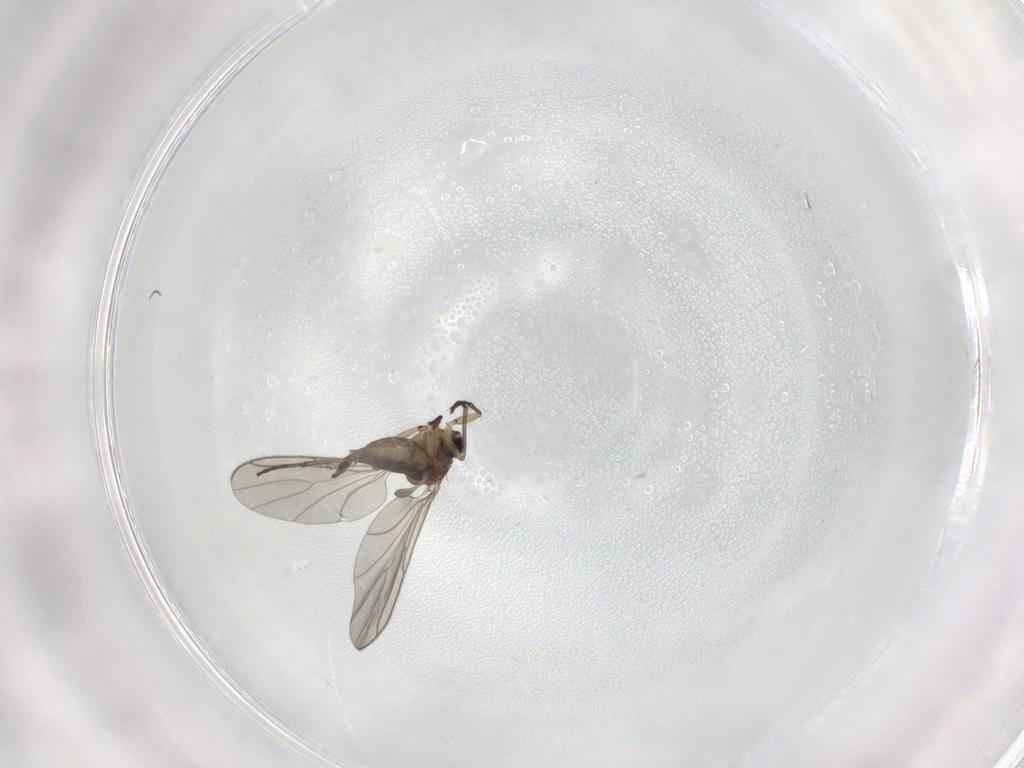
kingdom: Animalia
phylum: Arthropoda
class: Insecta
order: Diptera
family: Sciaridae
